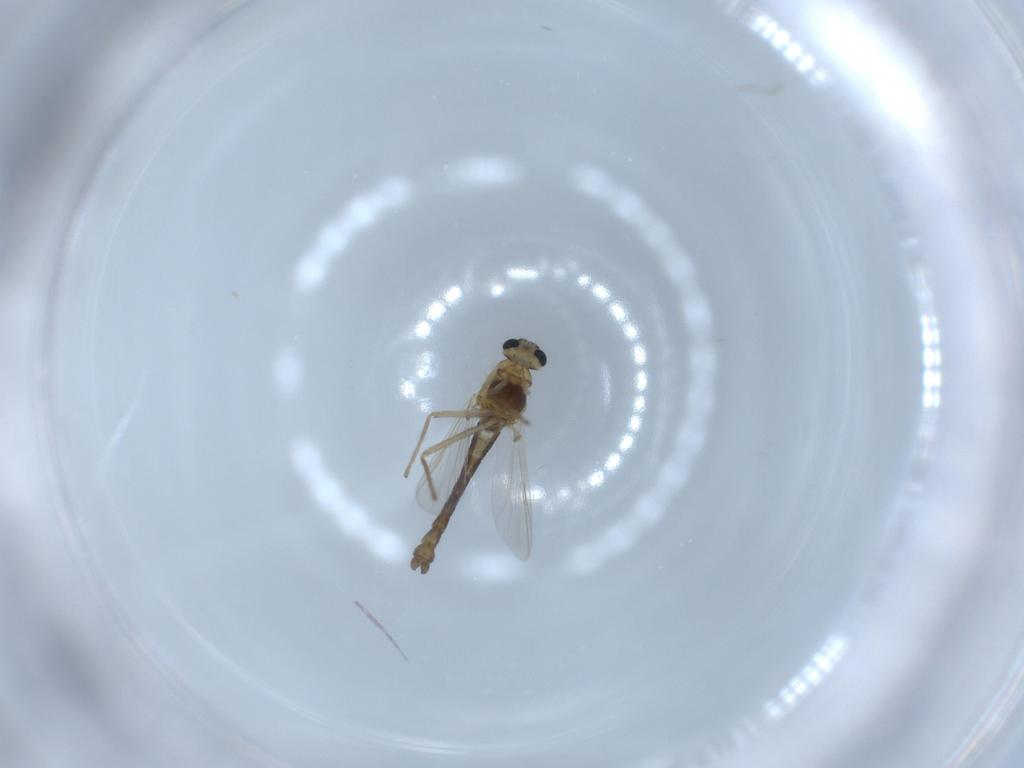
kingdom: Animalia
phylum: Arthropoda
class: Insecta
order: Diptera
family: Chironomidae
